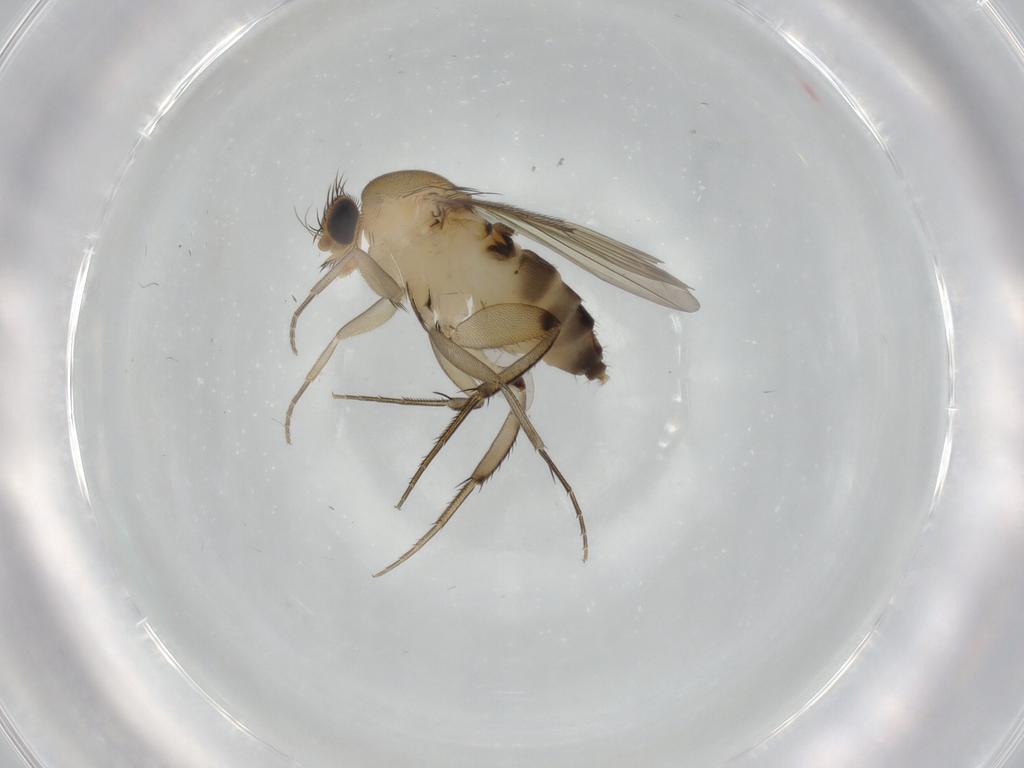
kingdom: Animalia
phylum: Arthropoda
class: Insecta
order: Diptera
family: Phoridae
